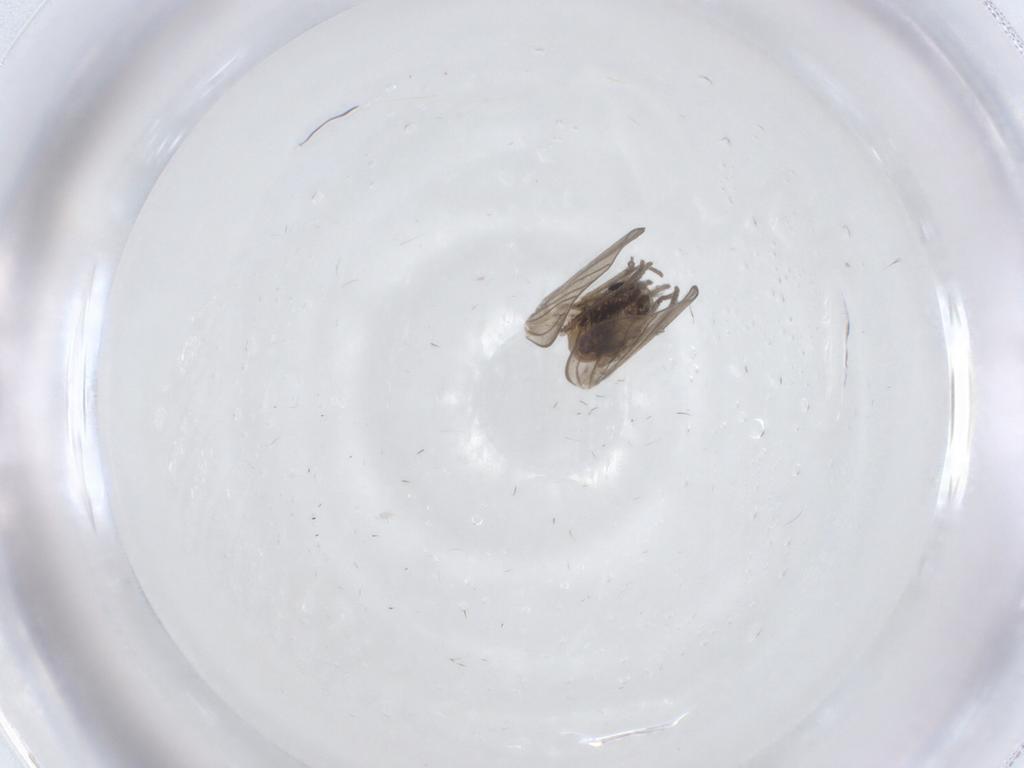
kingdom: Animalia
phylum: Arthropoda
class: Insecta
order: Diptera
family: Psychodidae
